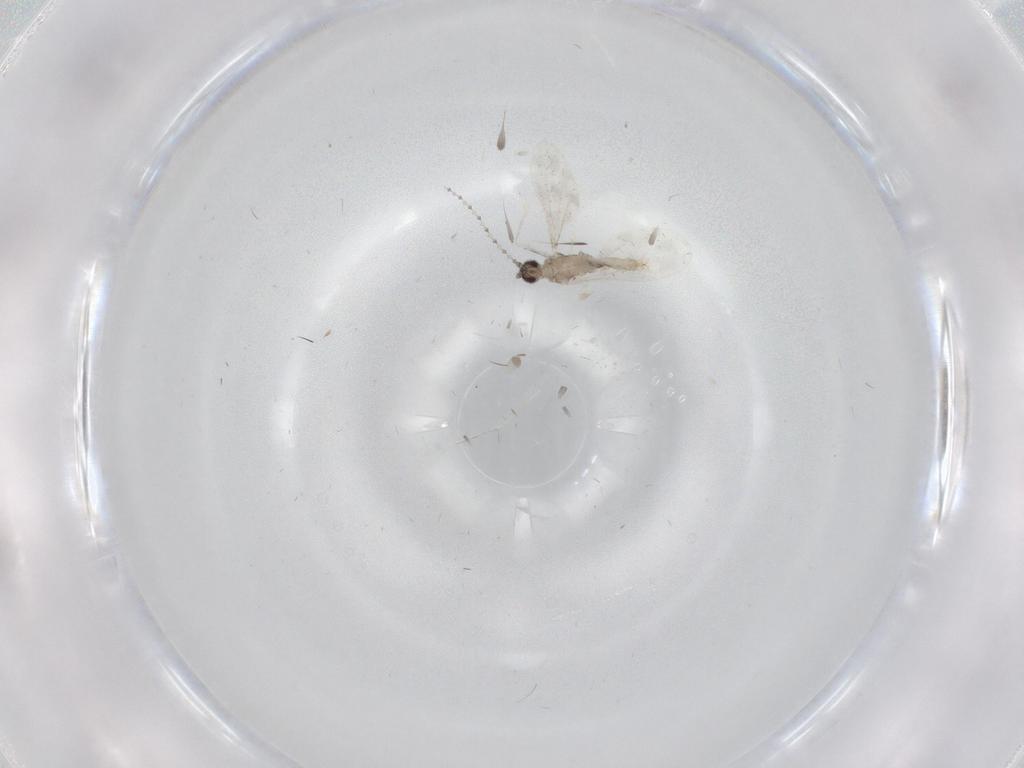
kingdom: Animalia
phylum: Arthropoda
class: Insecta
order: Diptera
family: Cecidomyiidae
